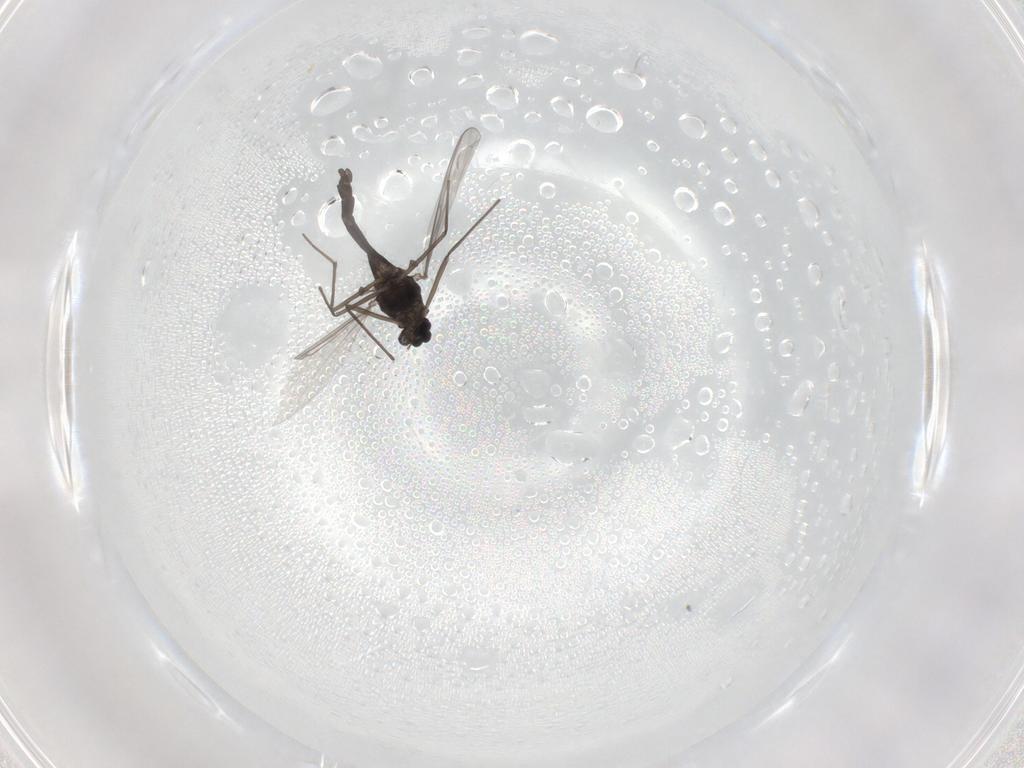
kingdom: Animalia
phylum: Arthropoda
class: Insecta
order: Diptera
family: Chironomidae
